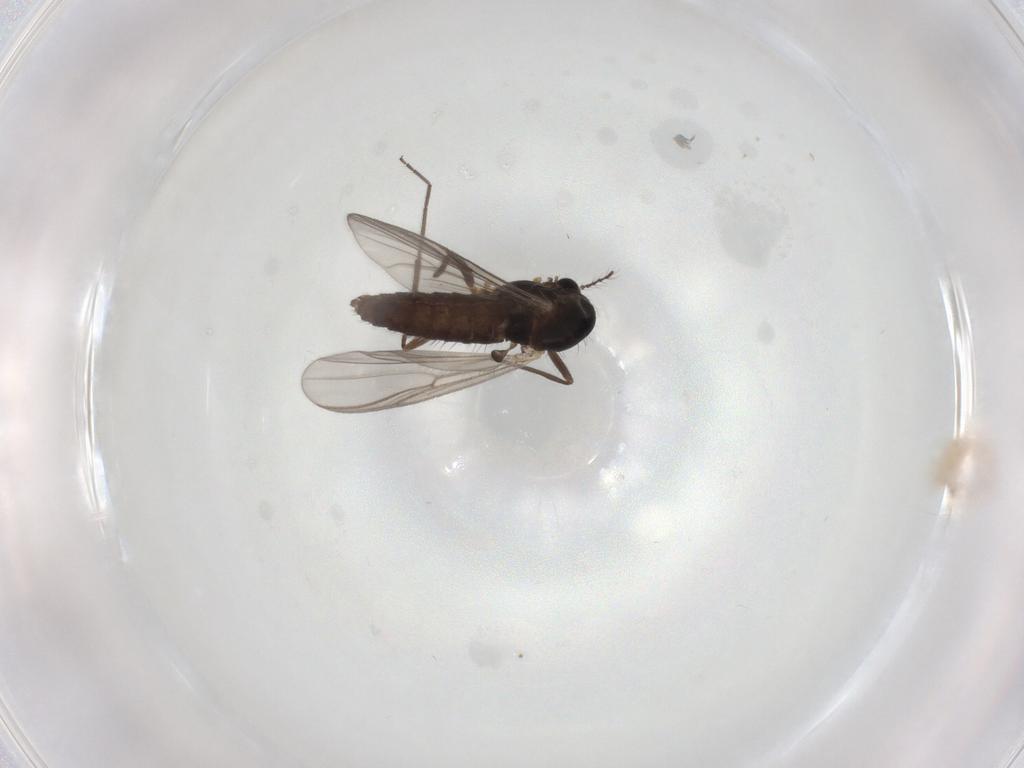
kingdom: Animalia
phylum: Arthropoda
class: Insecta
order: Diptera
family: Chironomidae
